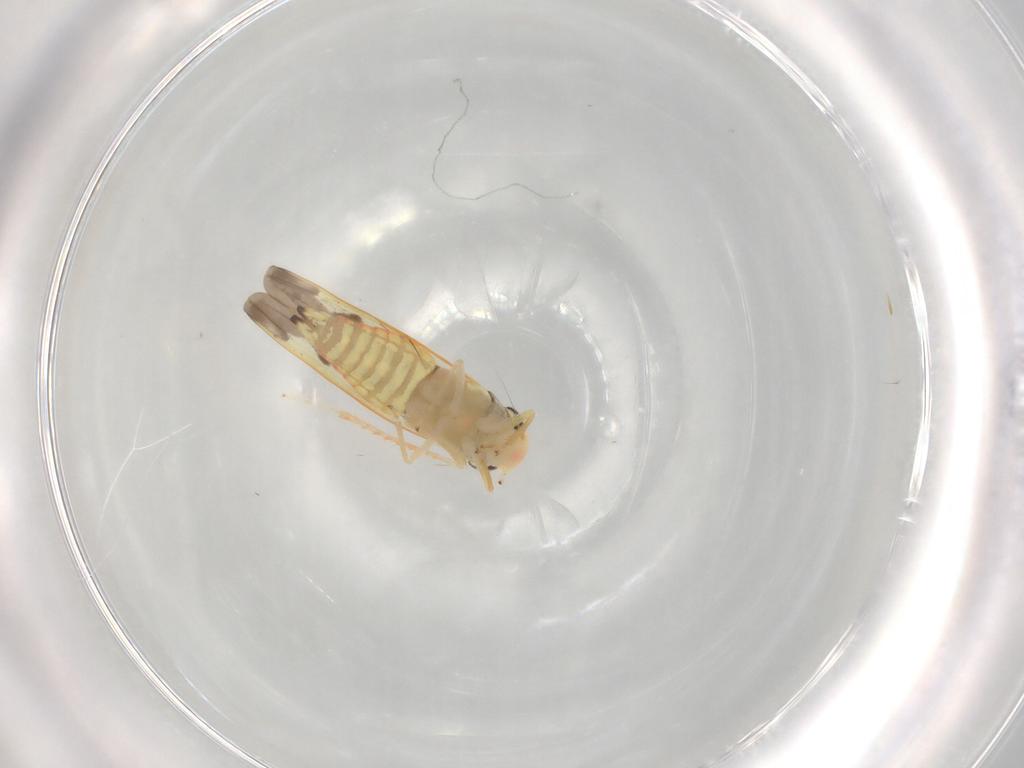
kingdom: Animalia
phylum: Arthropoda
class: Insecta
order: Hemiptera
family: Cicadellidae
